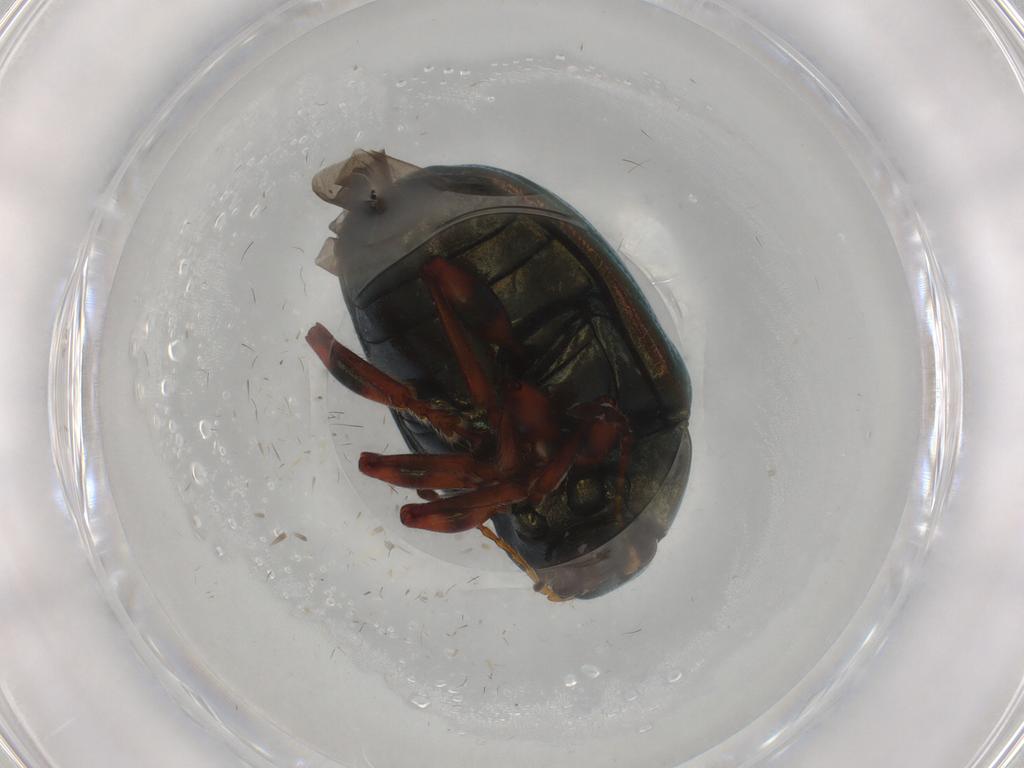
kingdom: Animalia
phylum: Arthropoda
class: Insecta
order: Coleoptera
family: Chrysomelidae
